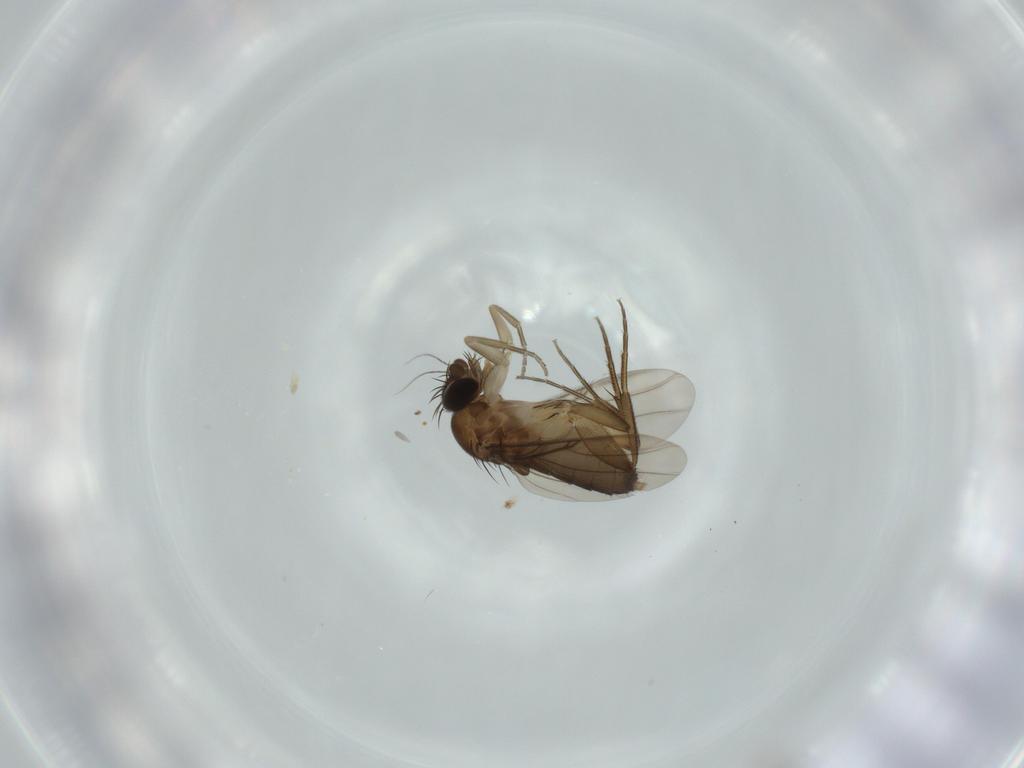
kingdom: Animalia
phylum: Arthropoda
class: Insecta
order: Diptera
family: Phoridae
